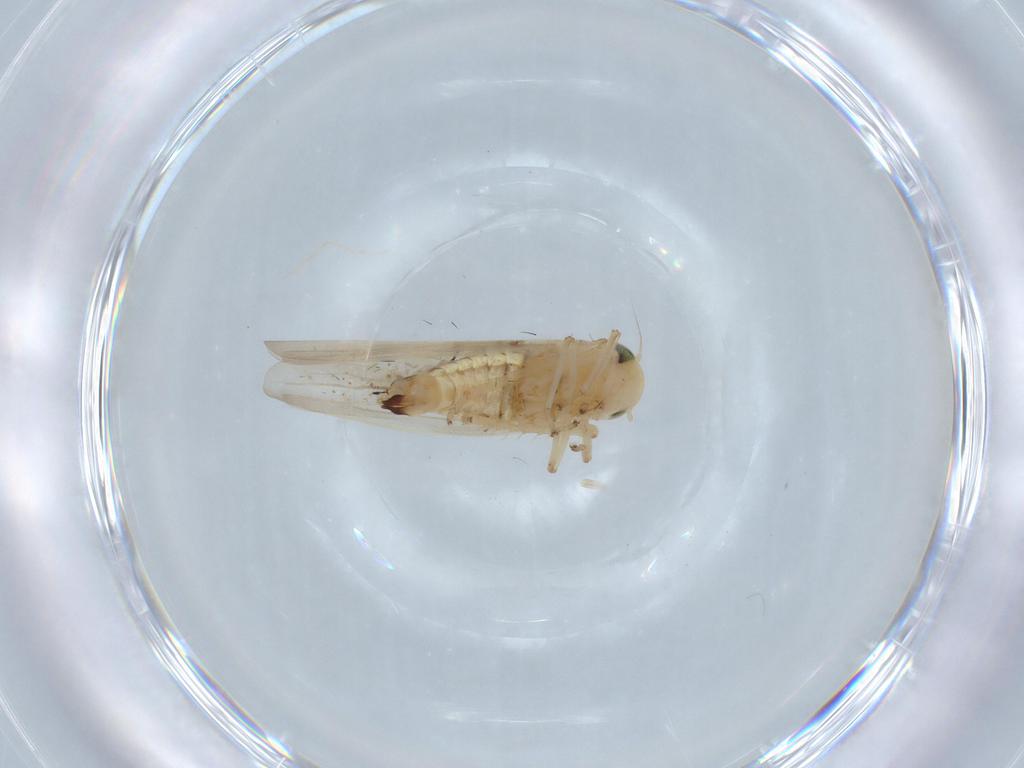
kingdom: Animalia
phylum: Arthropoda
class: Insecta
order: Hemiptera
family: Cicadellidae
